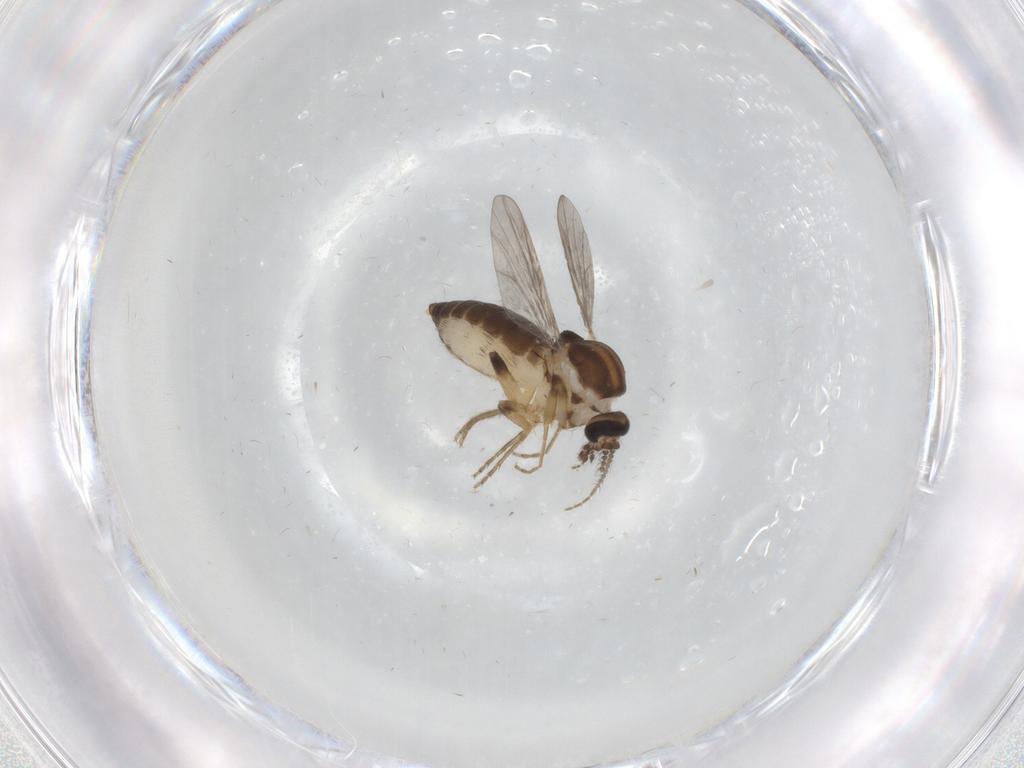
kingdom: Animalia
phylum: Arthropoda
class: Insecta
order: Diptera
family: Ceratopogonidae
